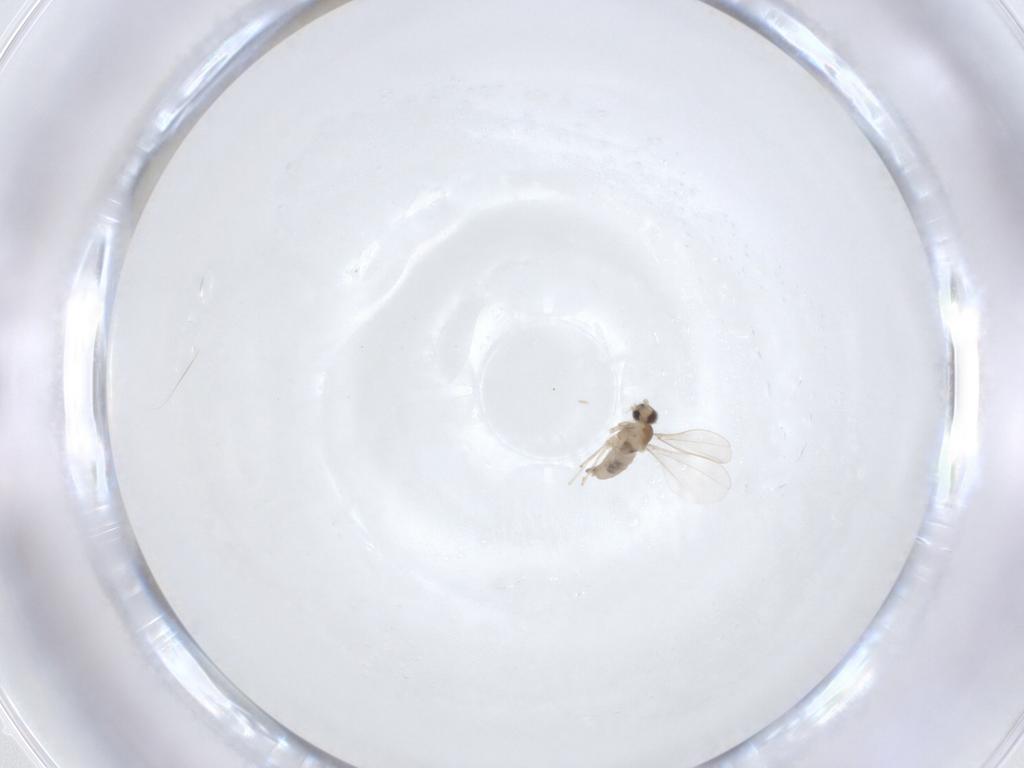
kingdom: Animalia
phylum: Arthropoda
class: Insecta
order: Diptera
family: Cecidomyiidae
